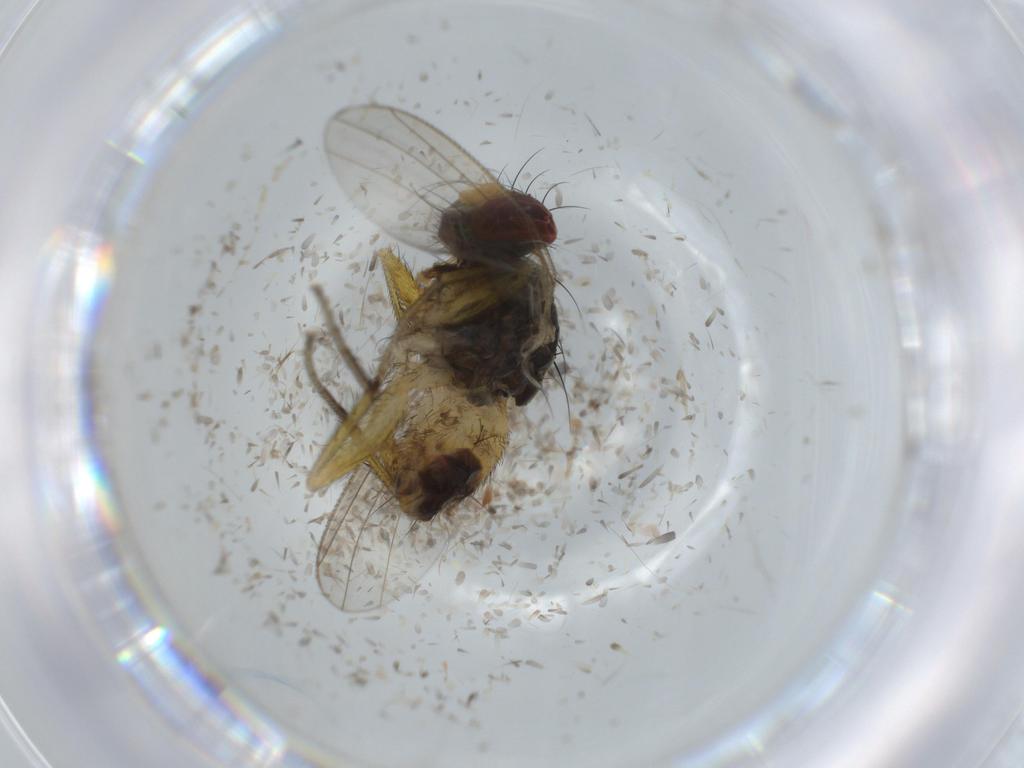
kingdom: Animalia
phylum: Arthropoda
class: Insecta
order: Diptera
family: Muscidae
